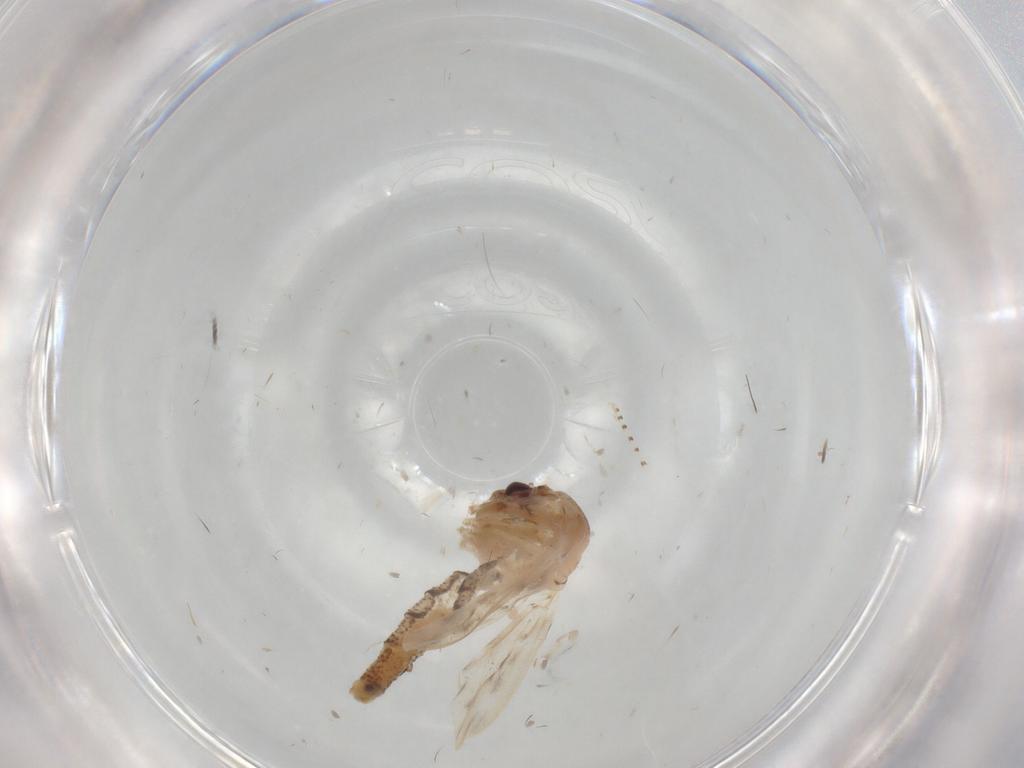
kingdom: Animalia
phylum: Arthropoda
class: Insecta
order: Diptera
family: Chaoboridae
